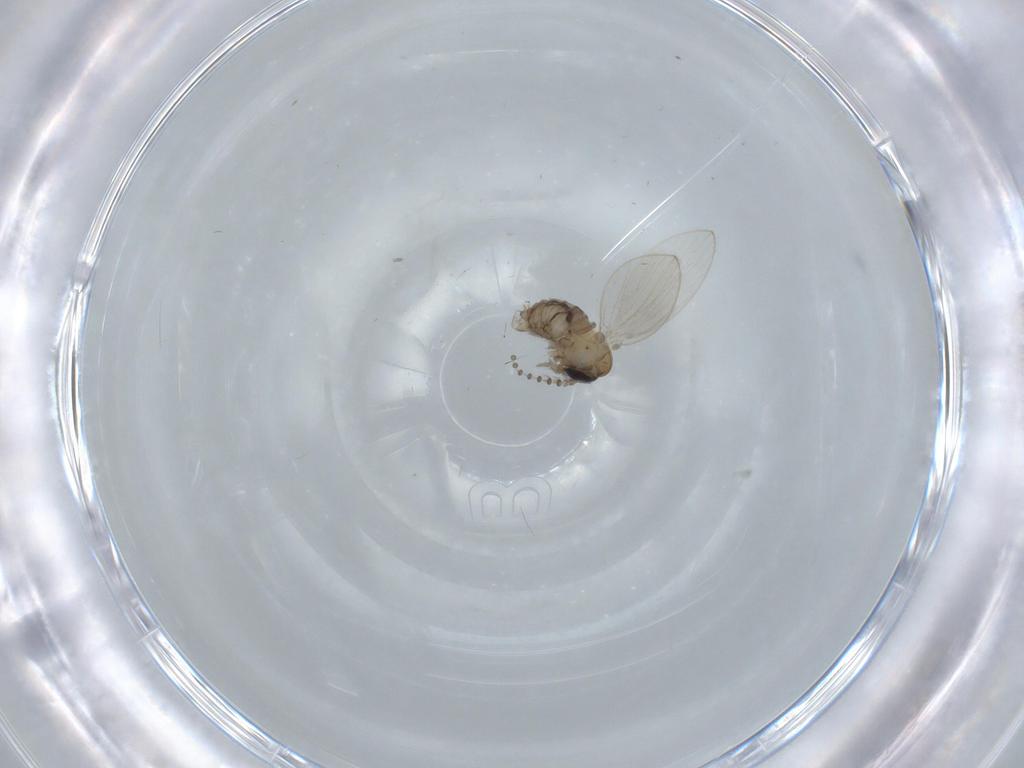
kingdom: Animalia
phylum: Arthropoda
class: Insecta
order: Diptera
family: Psychodidae
